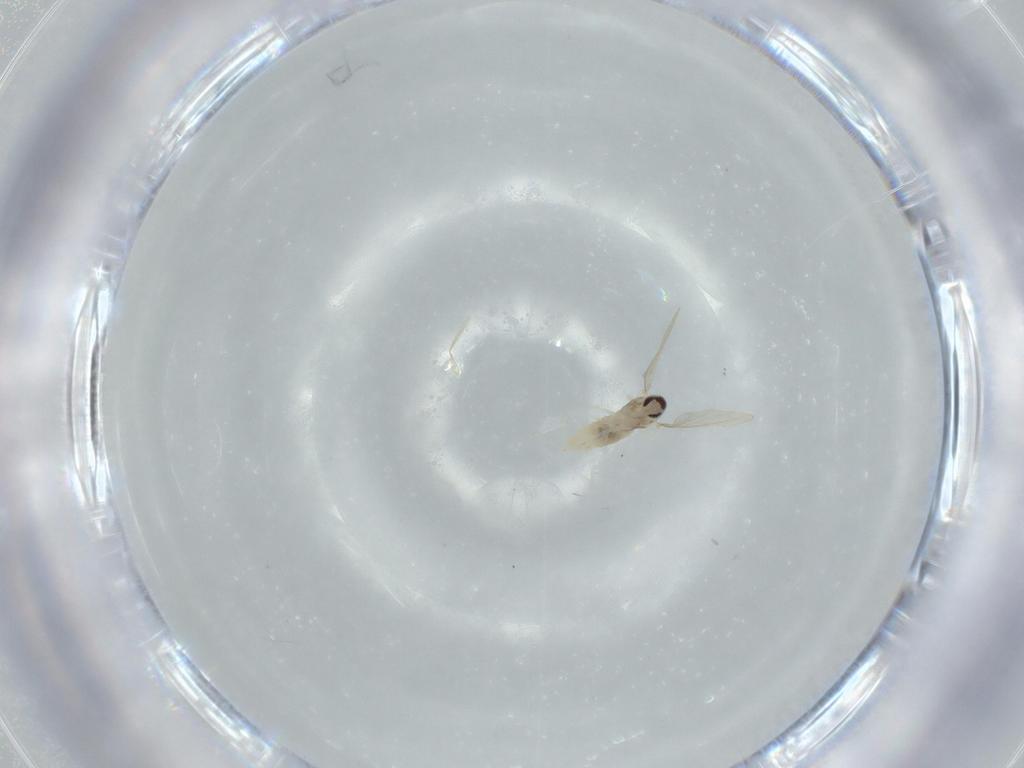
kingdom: Animalia
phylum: Arthropoda
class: Insecta
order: Diptera
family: Cecidomyiidae
